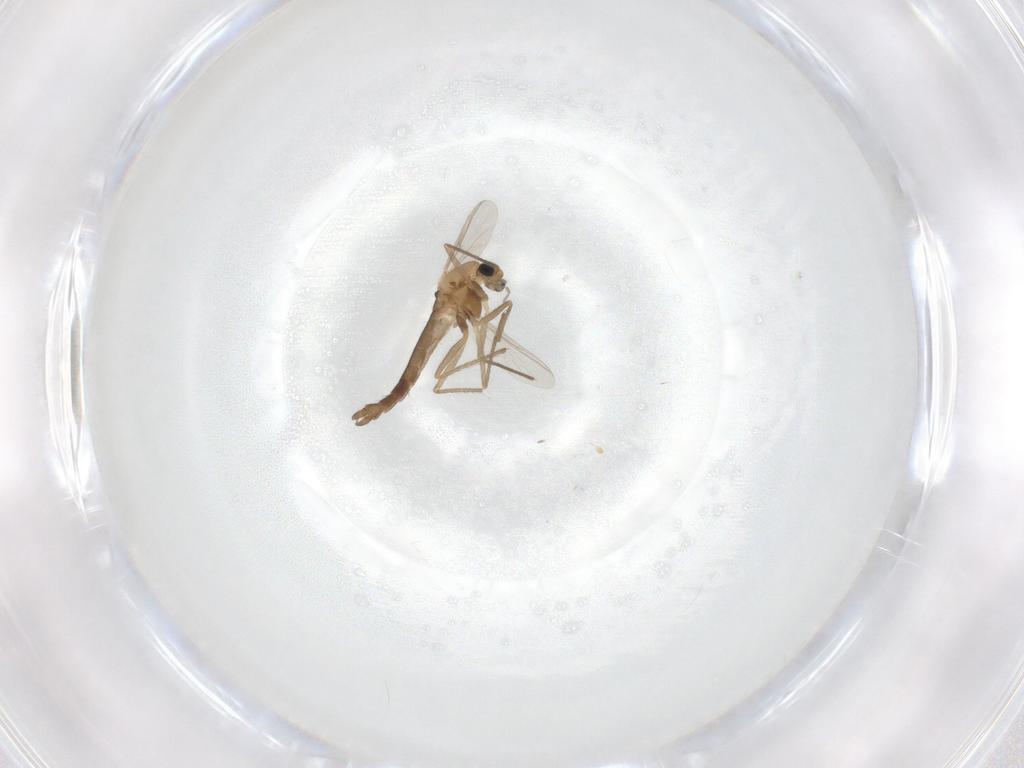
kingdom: Animalia
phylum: Arthropoda
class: Insecta
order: Diptera
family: Chironomidae
